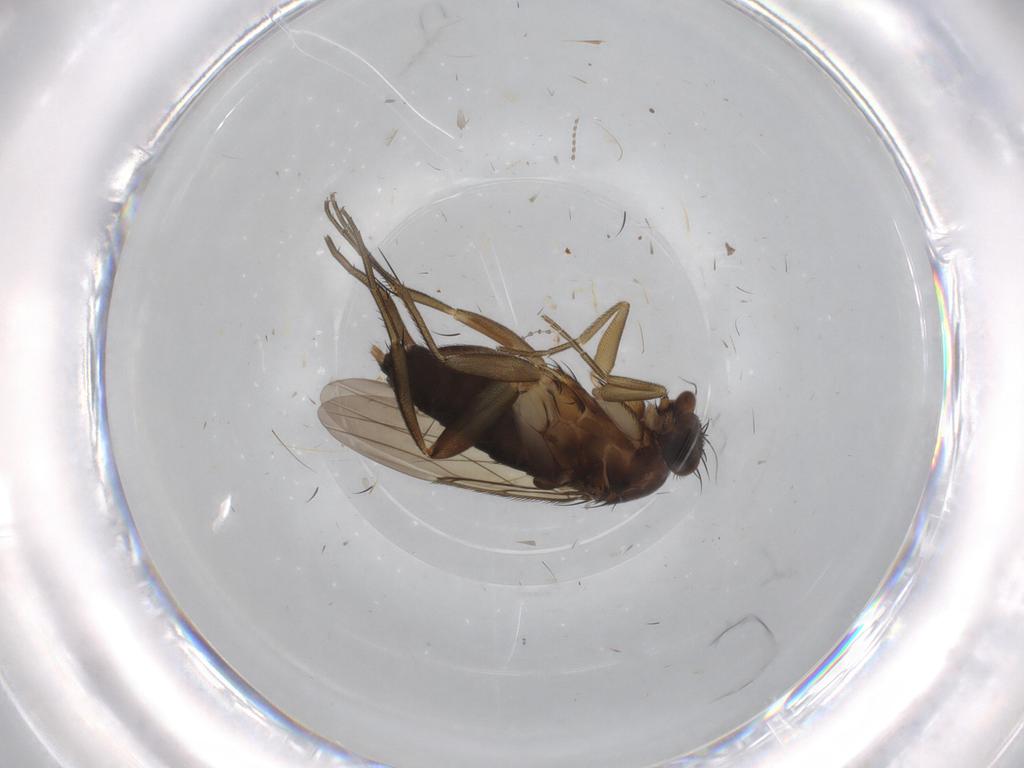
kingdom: Animalia
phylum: Arthropoda
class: Insecta
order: Diptera
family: Phoridae
